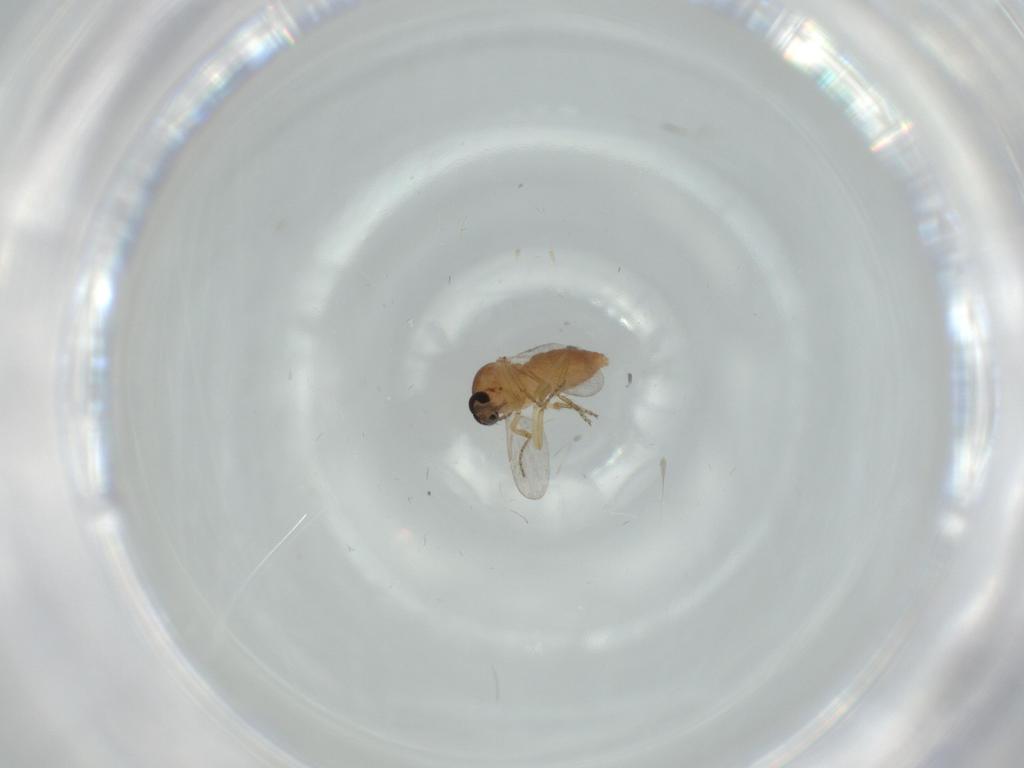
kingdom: Animalia
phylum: Arthropoda
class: Insecta
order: Diptera
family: Ceratopogonidae
